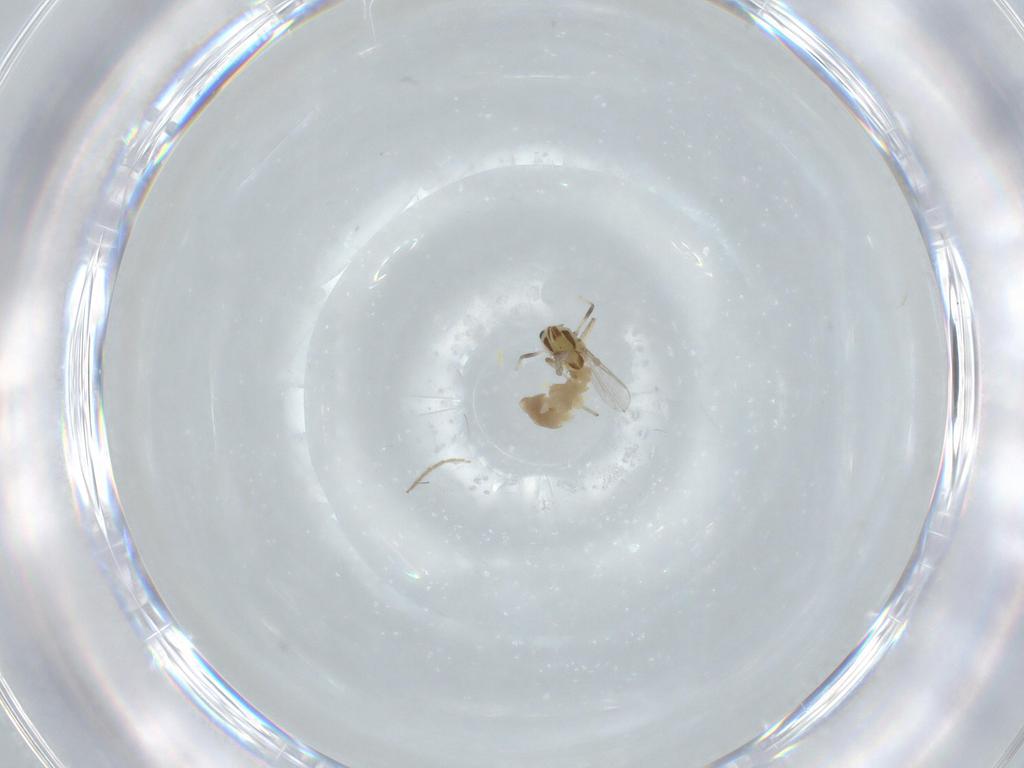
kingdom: Animalia
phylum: Arthropoda
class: Insecta
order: Diptera
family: Chironomidae
